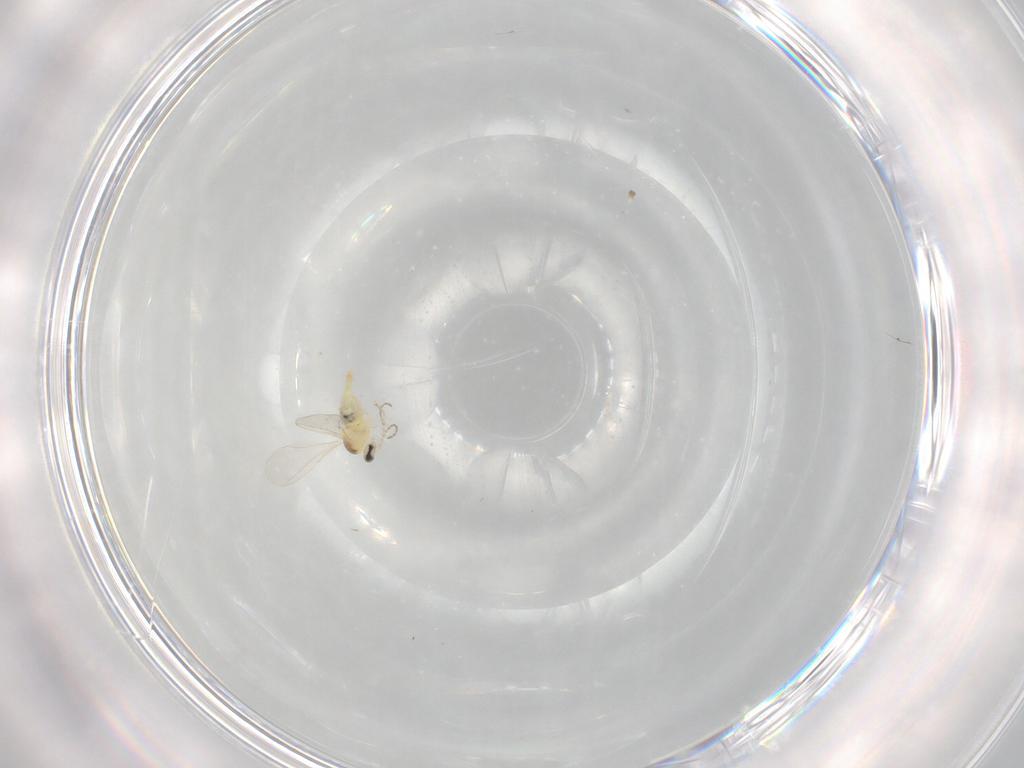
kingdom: Animalia
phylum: Arthropoda
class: Insecta
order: Diptera
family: Cecidomyiidae
